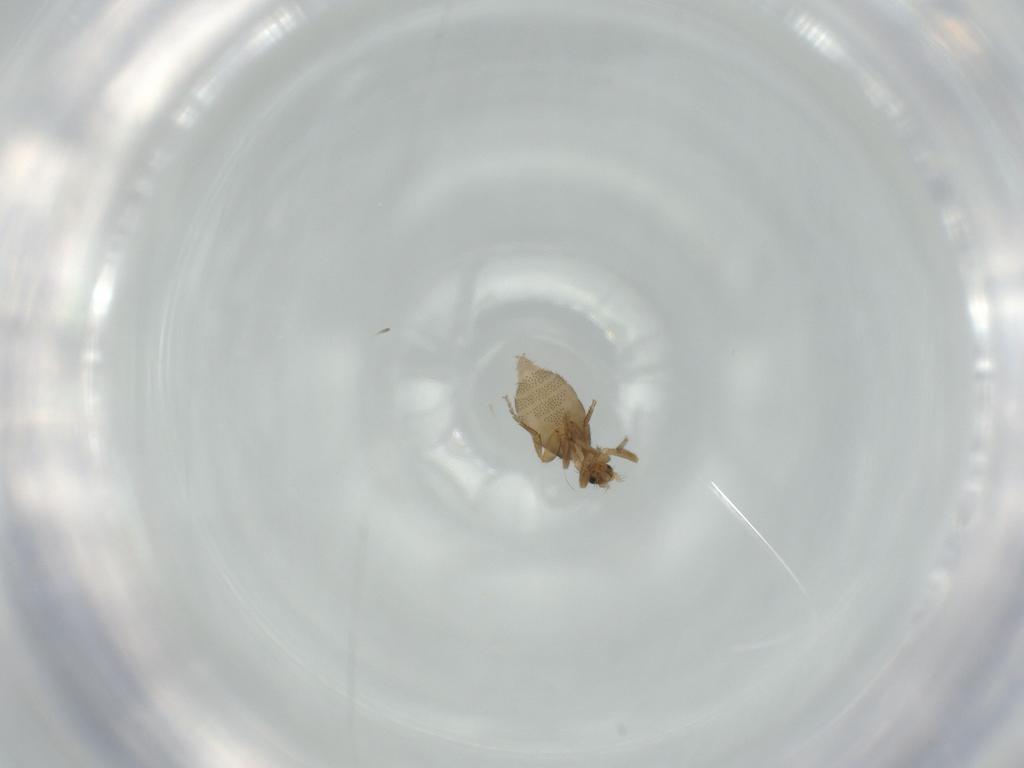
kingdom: Animalia
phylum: Arthropoda
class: Insecta
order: Diptera
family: Phoridae
